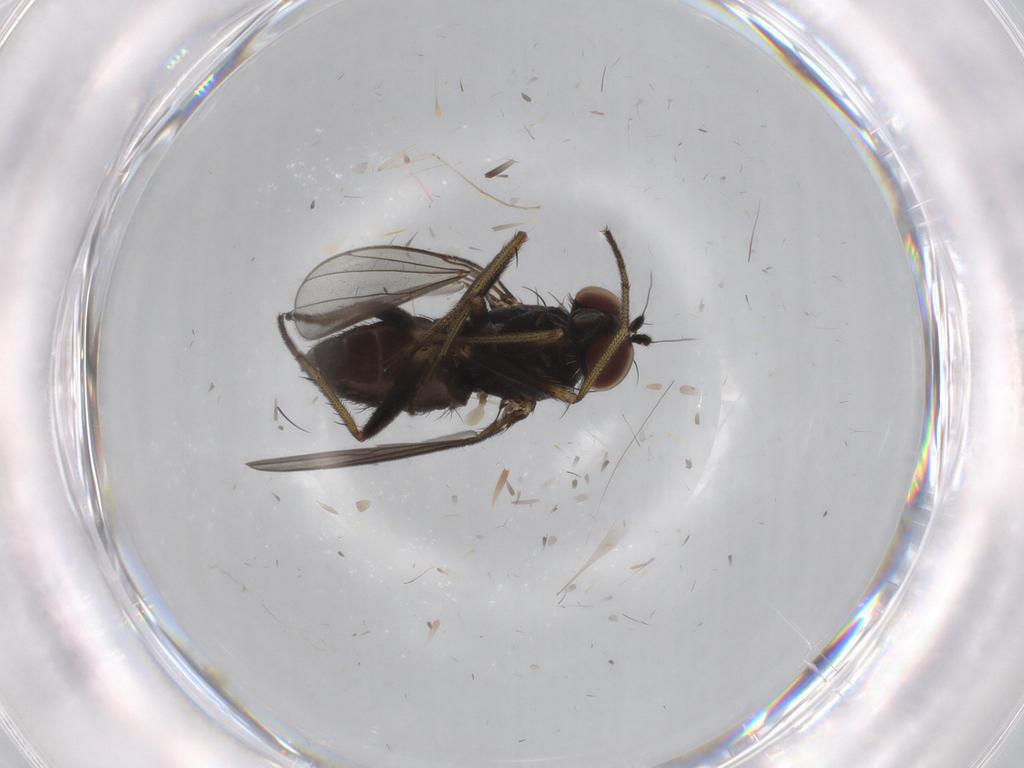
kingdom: Animalia
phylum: Arthropoda
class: Insecta
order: Diptera
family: Dolichopodidae
